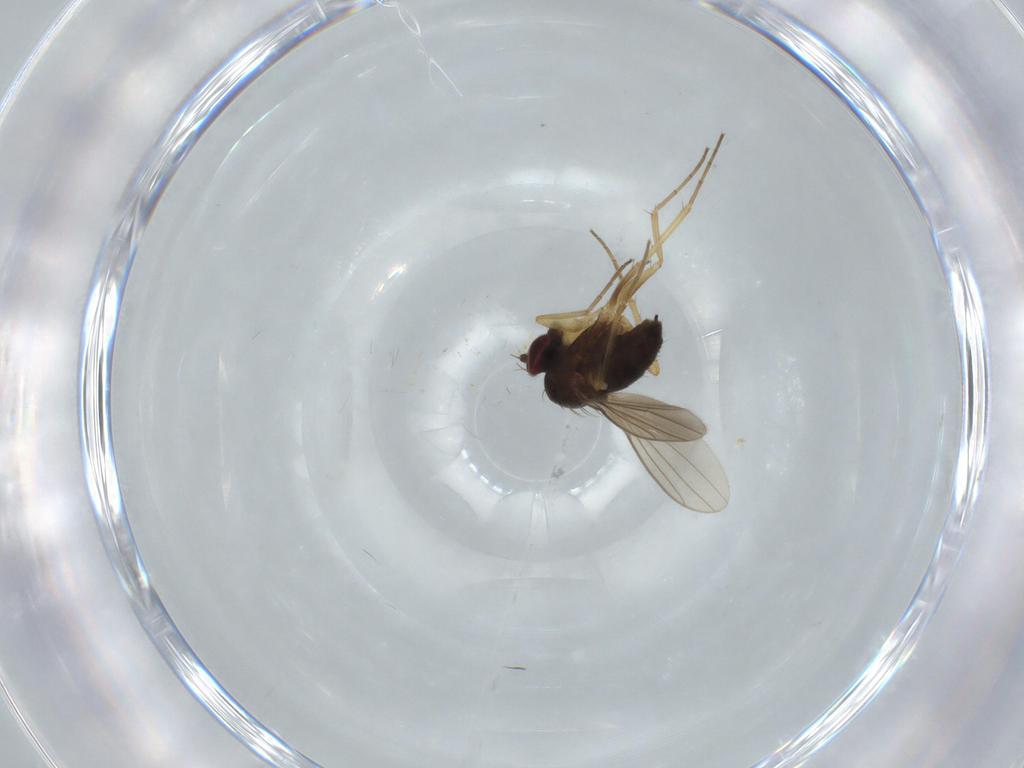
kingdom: Animalia
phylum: Arthropoda
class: Insecta
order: Diptera
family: Dolichopodidae
